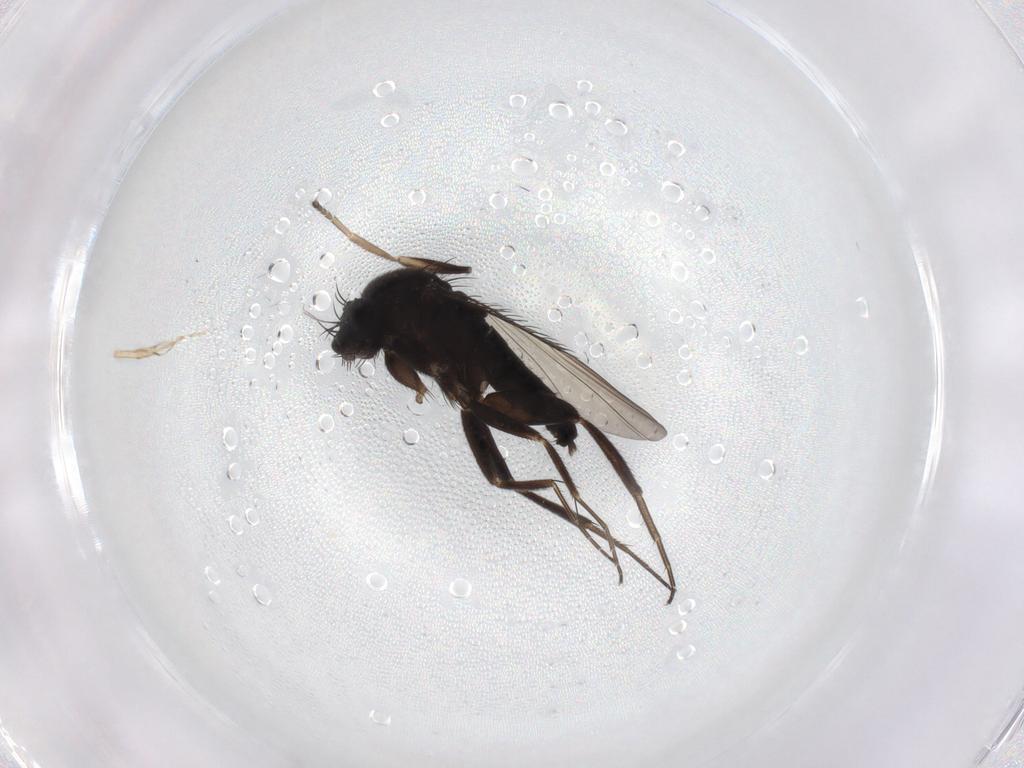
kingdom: Animalia
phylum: Arthropoda
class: Insecta
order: Diptera
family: Phoridae
